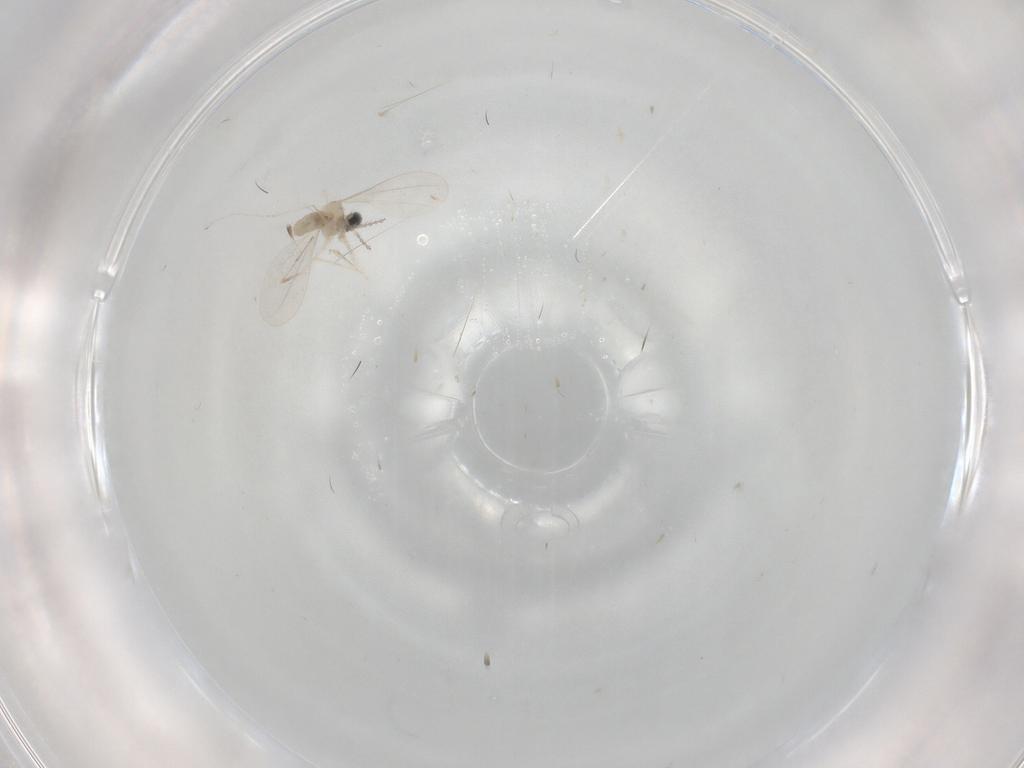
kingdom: Animalia
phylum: Arthropoda
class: Insecta
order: Diptera
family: Cecidomyiidae
